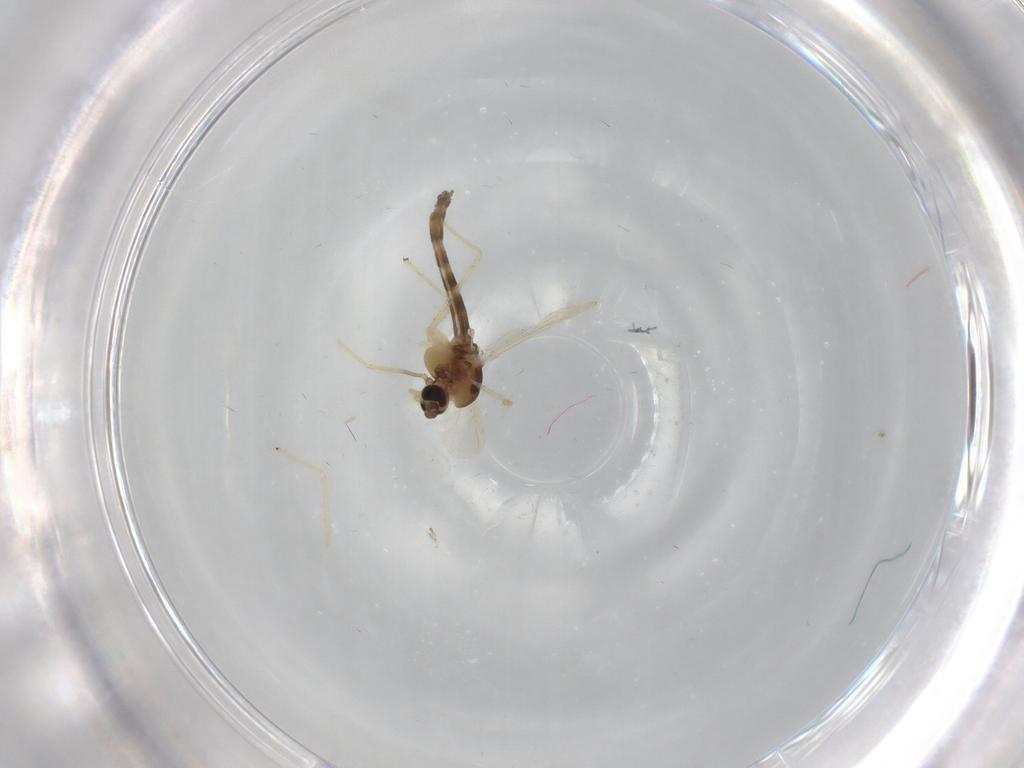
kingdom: Animalia
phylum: Arthropoda
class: Insecta
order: Diptera
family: Chironomidae
